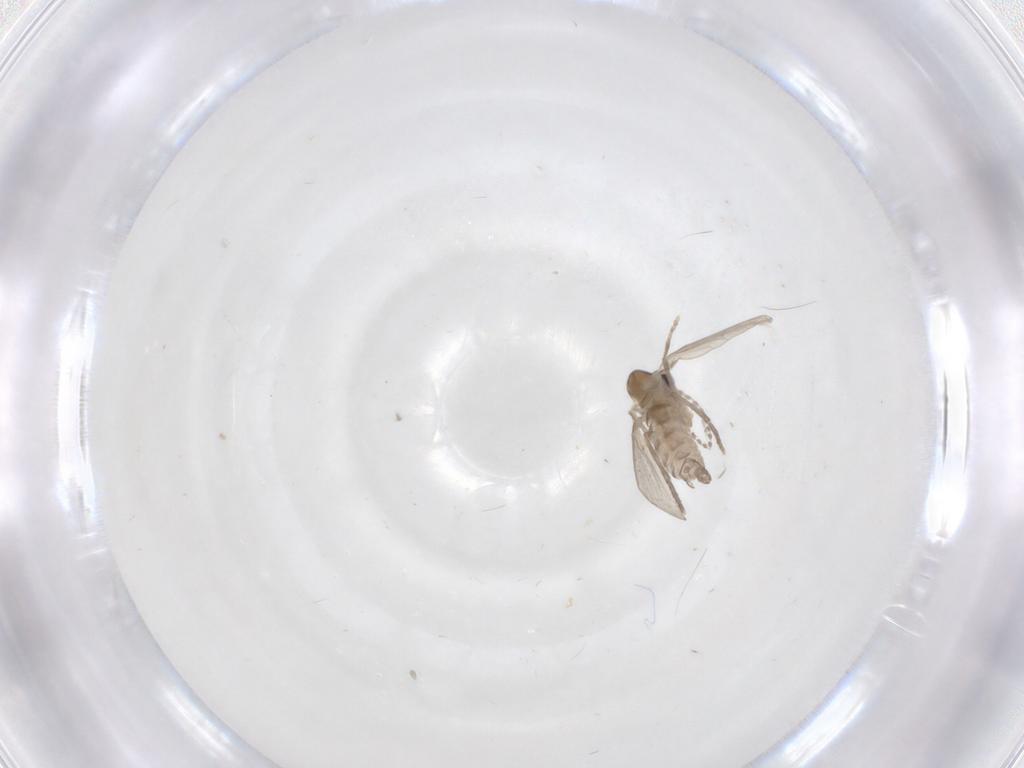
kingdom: Animalia
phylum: Arthropoda
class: Insecta
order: Diptera
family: Psychodidae
